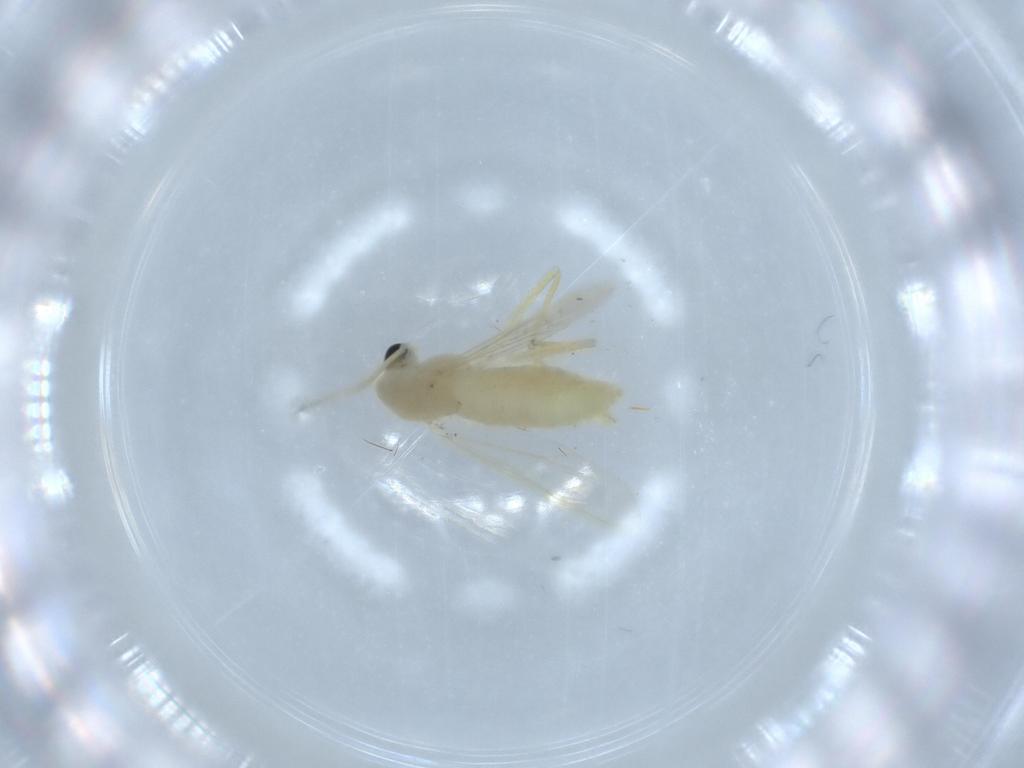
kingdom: Animalia
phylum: Arthropoda
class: Insecta
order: Diptera
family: Chironomidae
